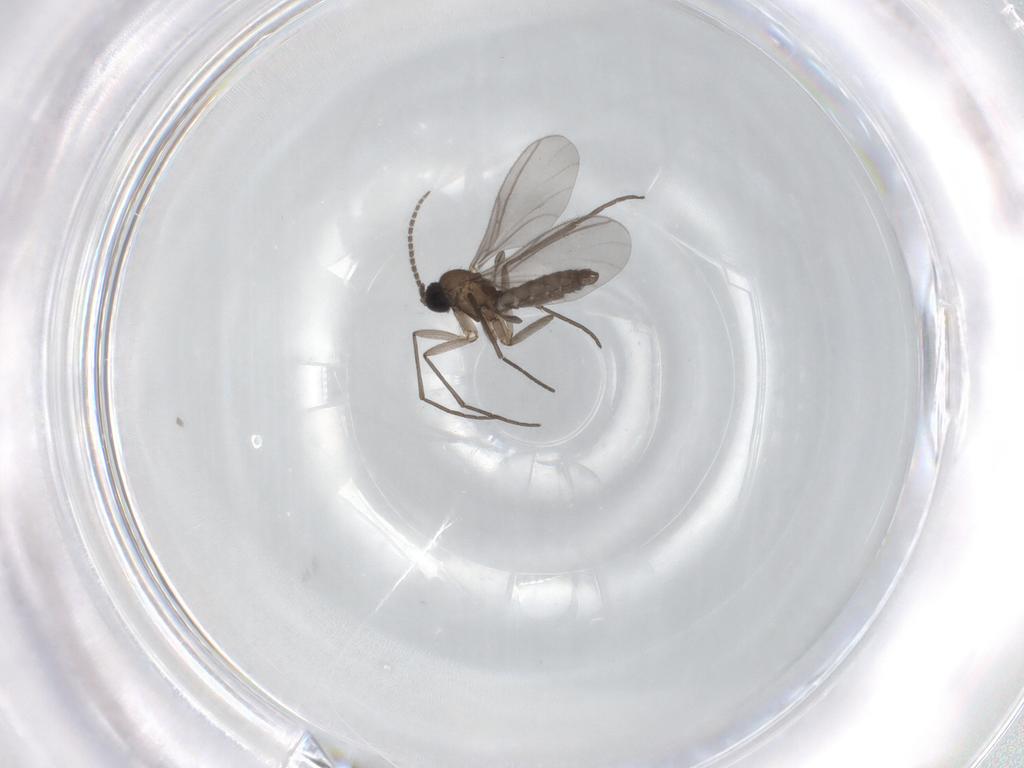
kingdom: Animalia
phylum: Arthropoda
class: Insecta
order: Diptera
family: Sciaridae
